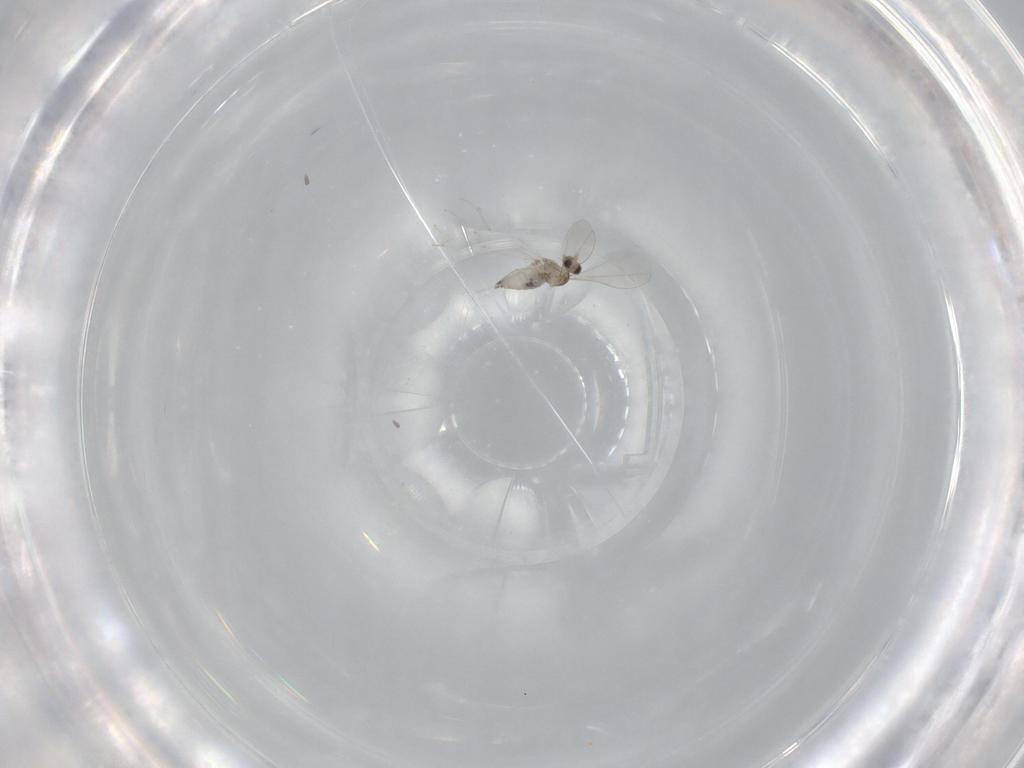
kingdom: Animalia
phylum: Arthropoda
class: Insecta
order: Diptera
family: Cecidomyiidae
